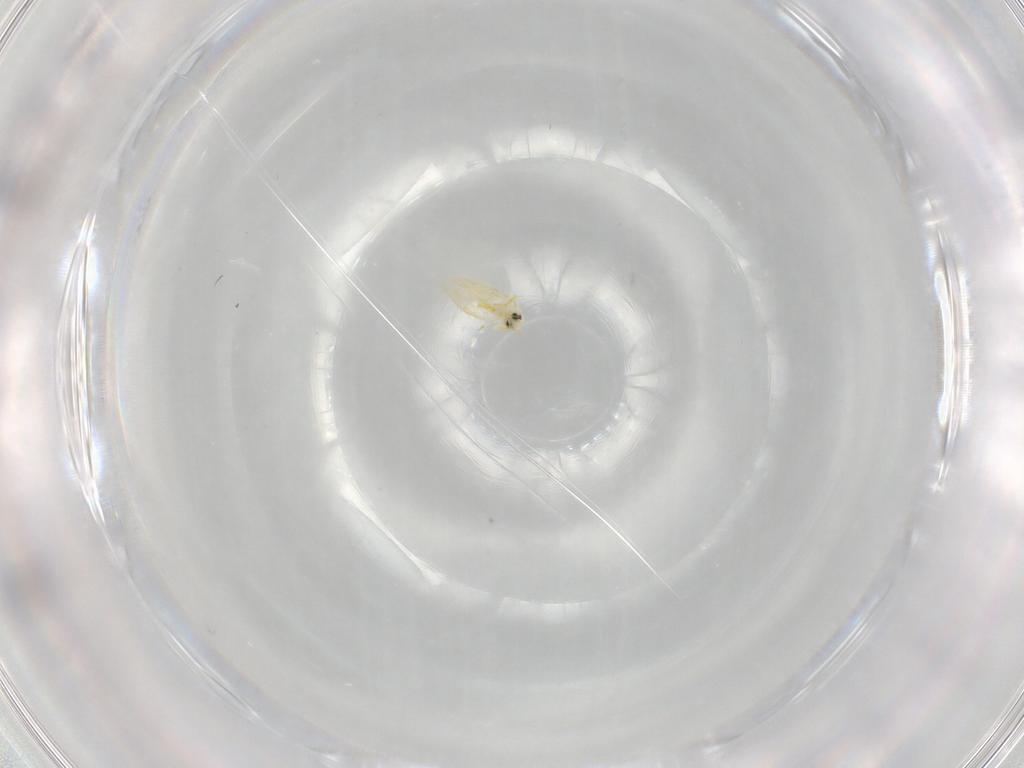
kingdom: Animalia
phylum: Arthropoda
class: Insecta
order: Hemiptera
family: Aleyrodidae
